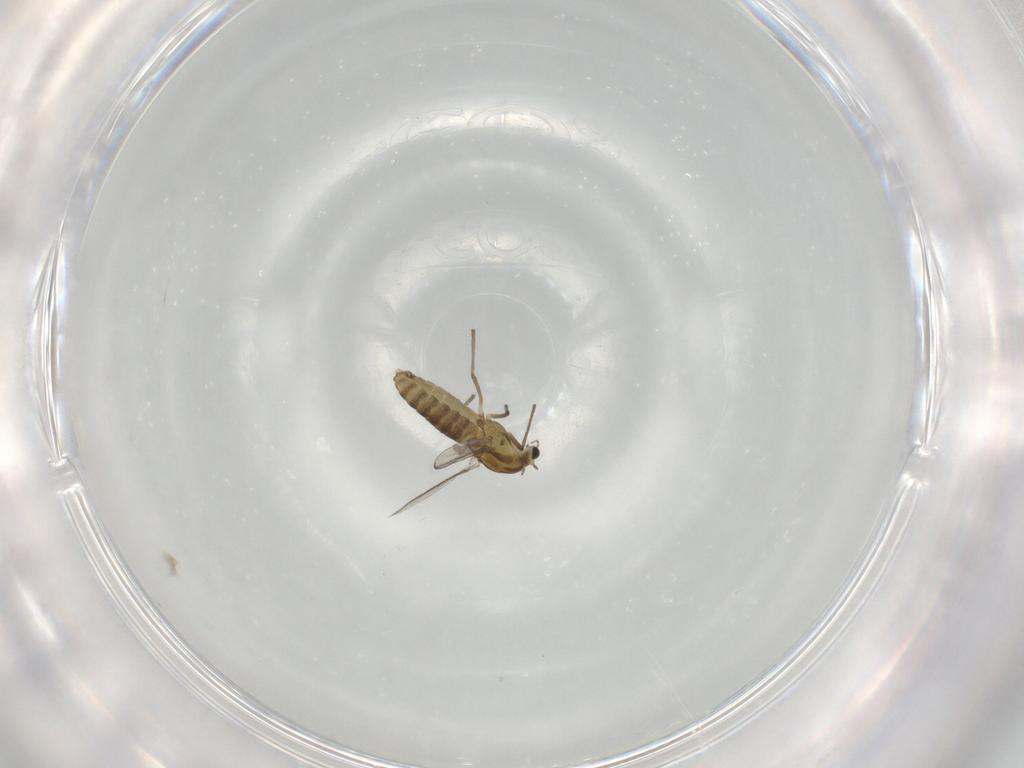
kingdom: Animalia
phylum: Arthropoda
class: Insecta
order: Diptera
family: Chironomidae
